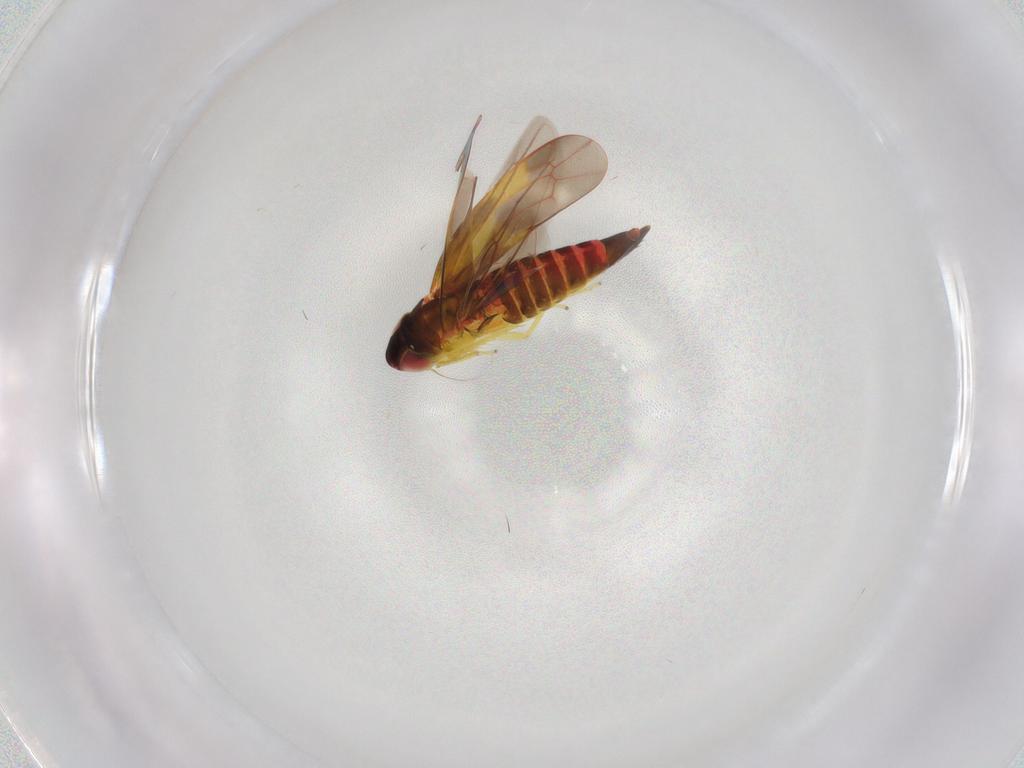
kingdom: Animalia
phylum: Arthropoda
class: Insecta
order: Hemiptera
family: Cicadellidae
